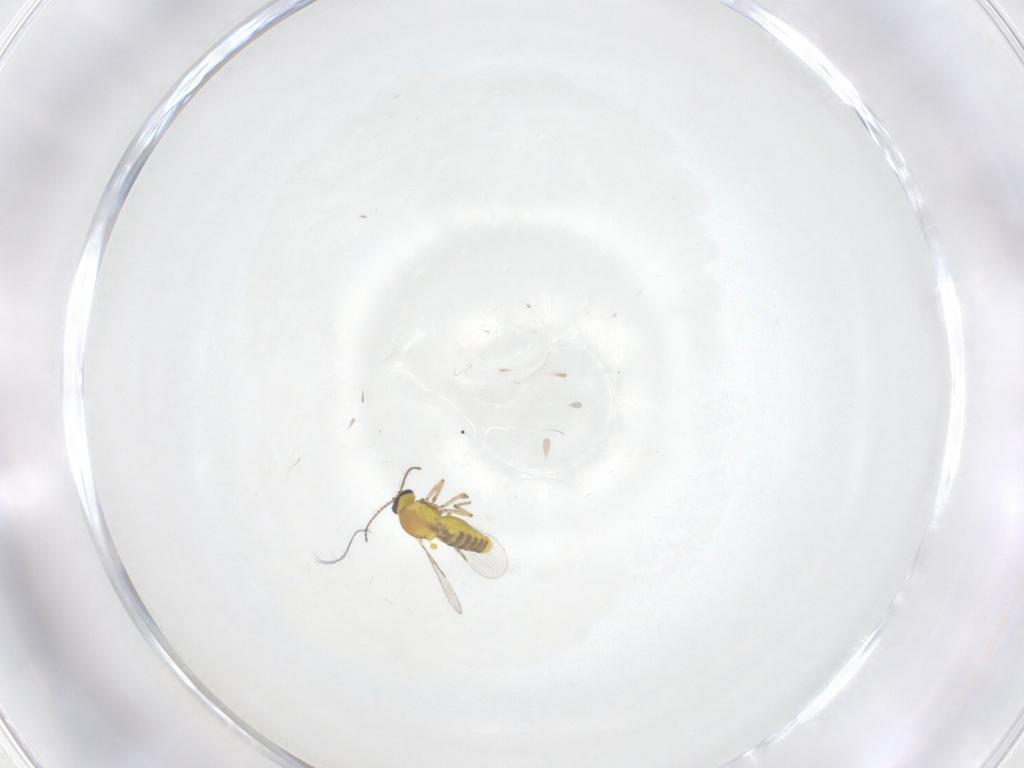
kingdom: Animalia
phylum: Arthropoda
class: Insecta
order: Diptera
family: Ceratopogonidae
